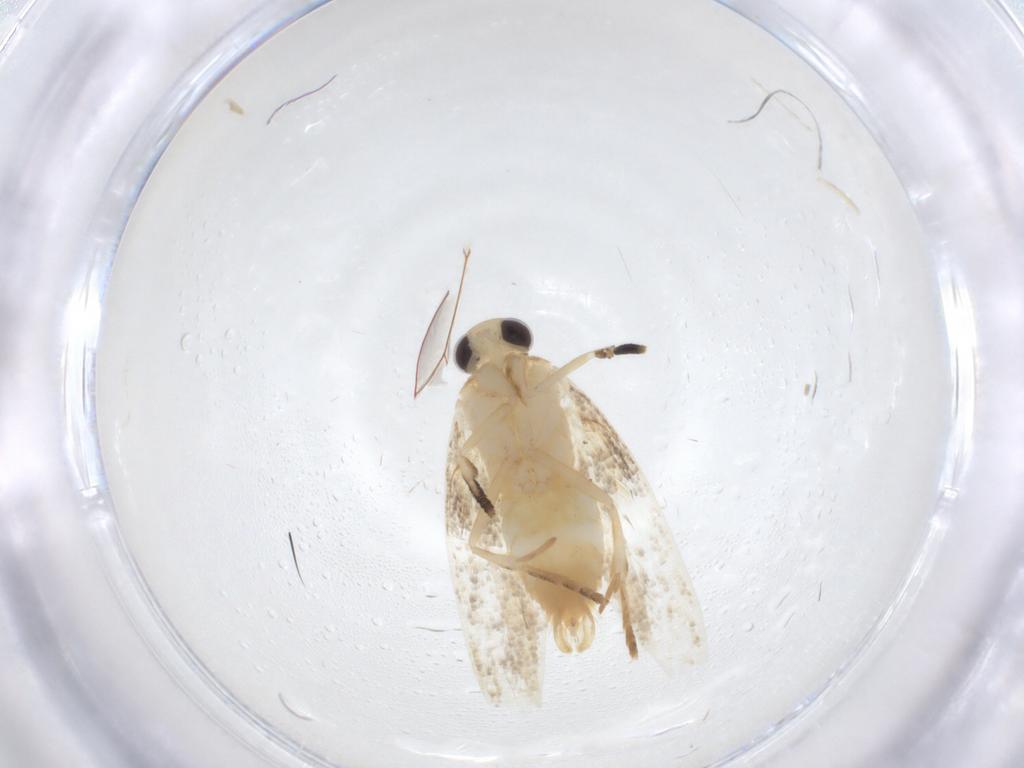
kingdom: Animalia
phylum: Arthropoda
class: Insecta
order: Lepidoptera
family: Erebidae
